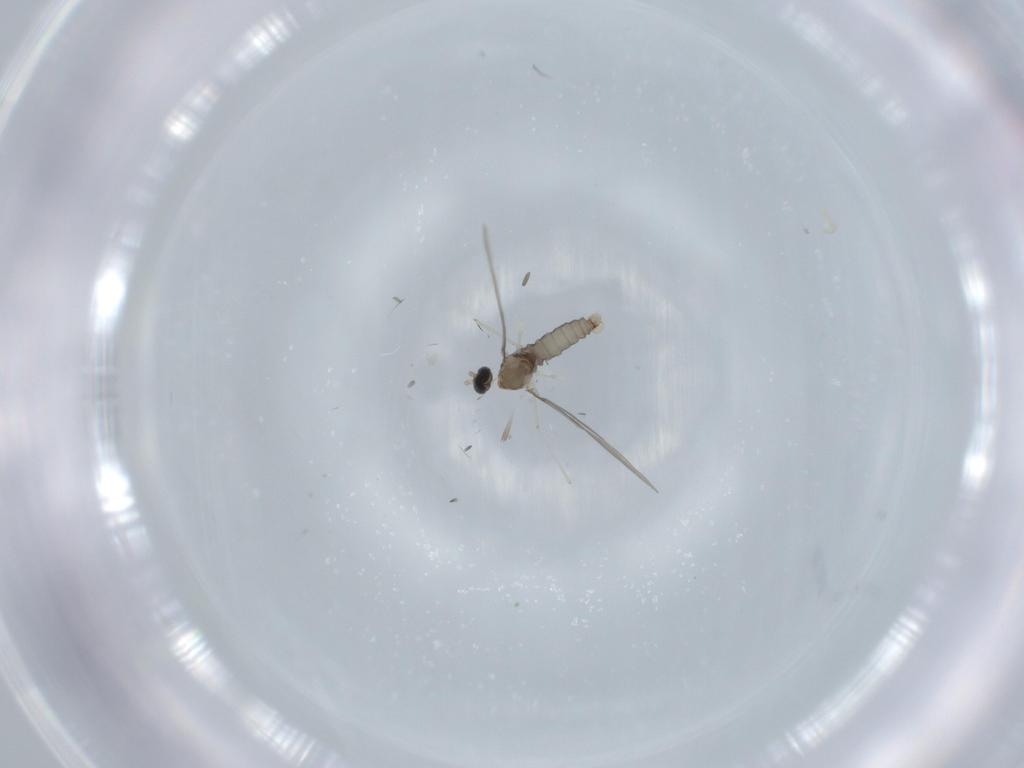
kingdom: Animalia
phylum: Arthropoda
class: Insecta
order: Diptera
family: Cecidomyiidae
